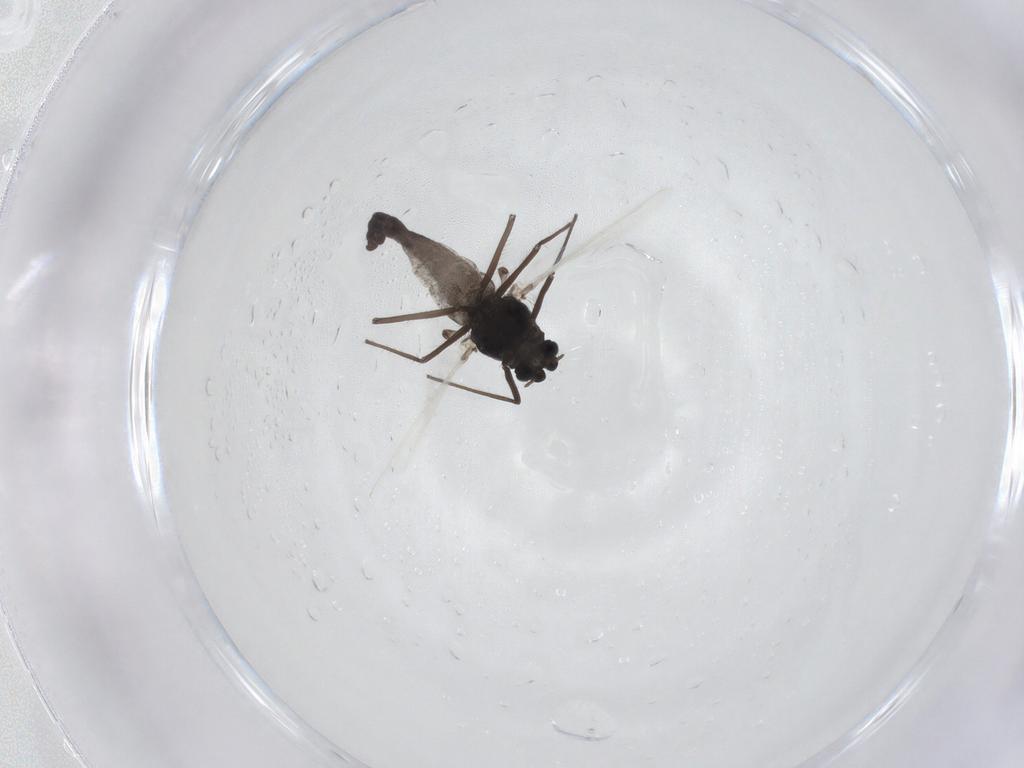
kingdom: Animalia
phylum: Arthropoda
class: Insecta
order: Diptera
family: Chironomidae
